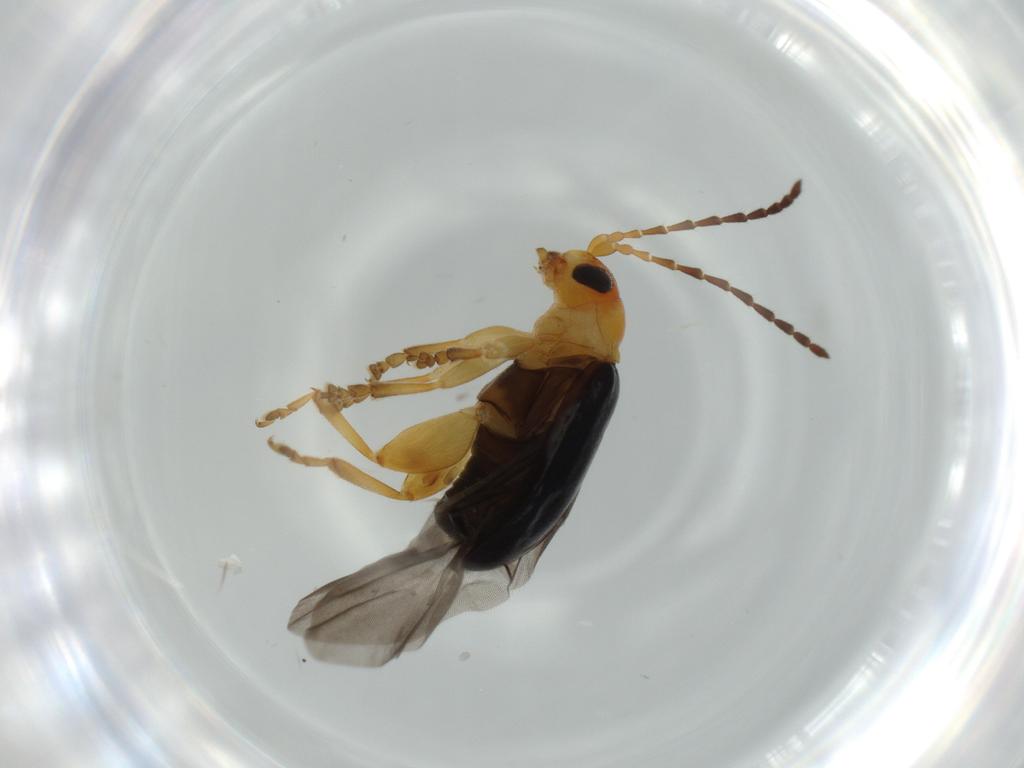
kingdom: Animalia
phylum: Arthropoda
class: Insecta
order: Coleoptera
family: Chrysomelidae
